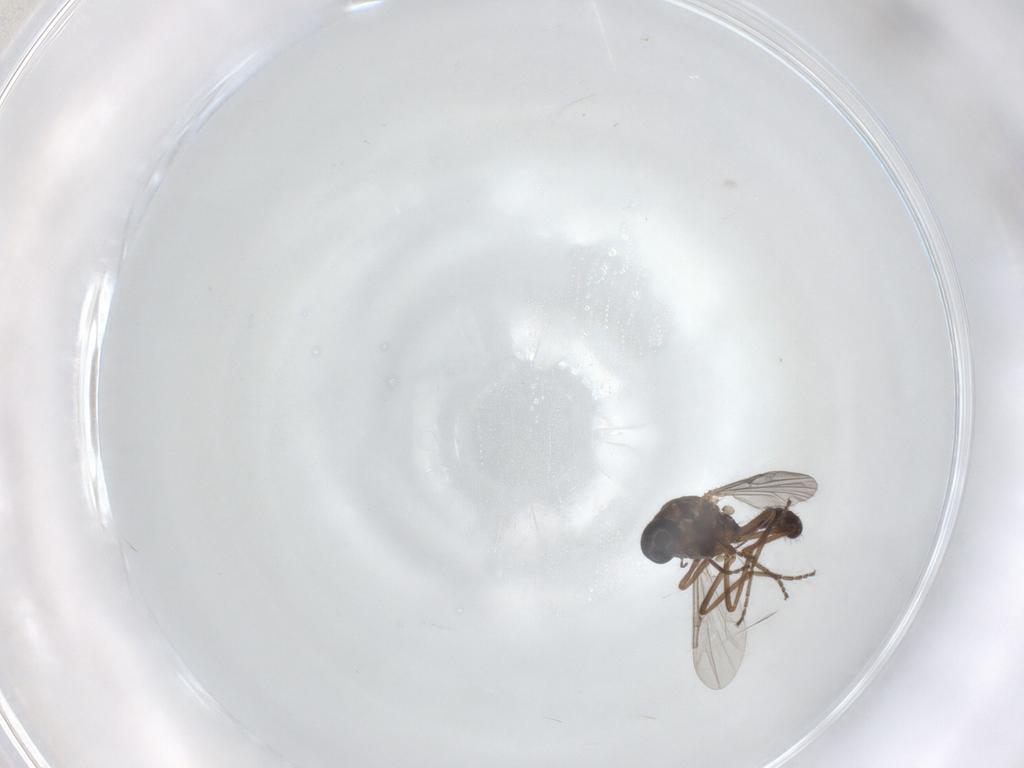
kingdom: Animalia
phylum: Arthropoda
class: Insecta
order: Diptera
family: Ceratopogonidae
